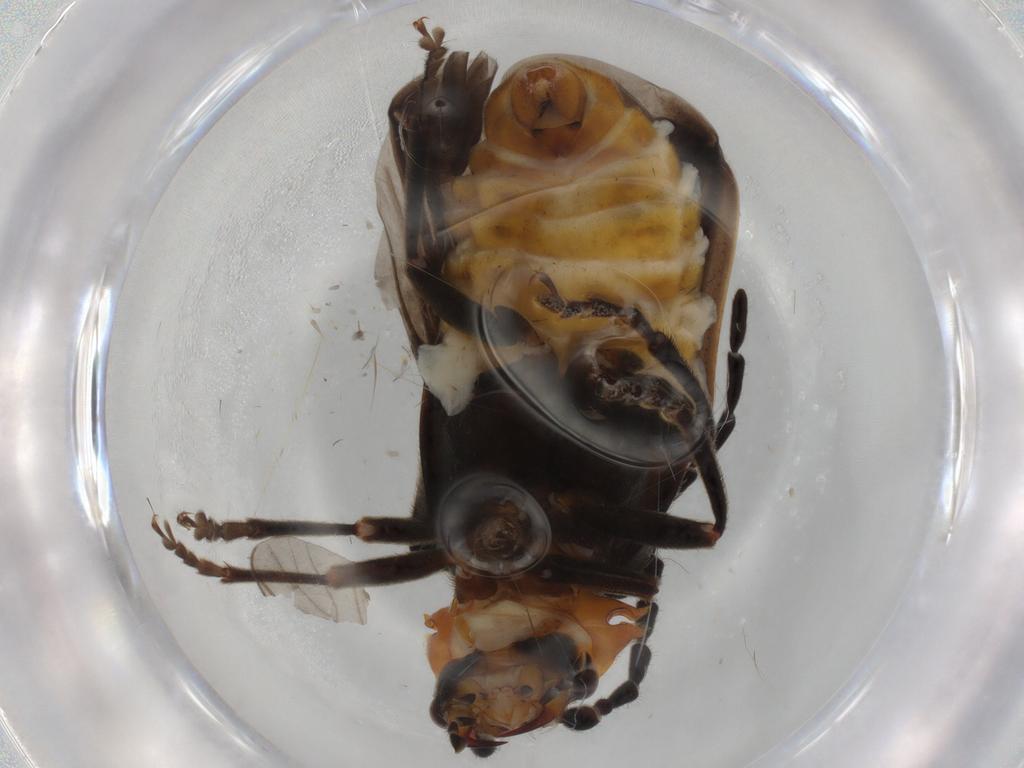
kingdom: Animalia
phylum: Arthropoda
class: Insecta
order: Coleoptera
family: Cantharidae
